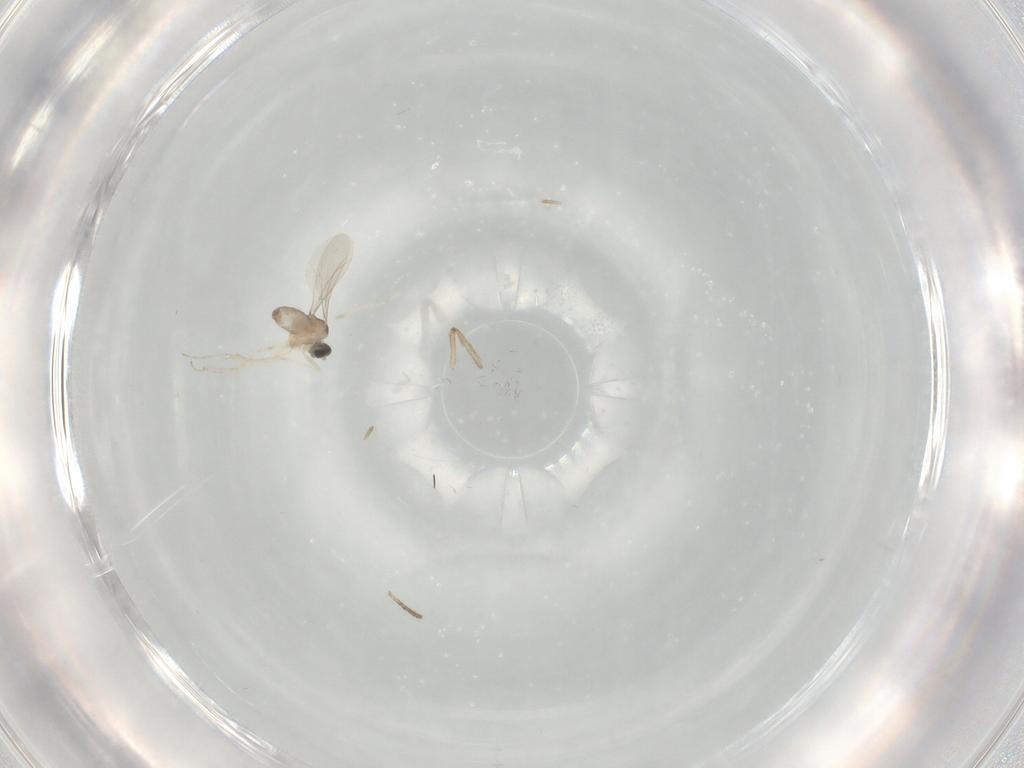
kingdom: Animalia
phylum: Arthropoda
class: Insecta
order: Diptera
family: Cecidomyiidae
